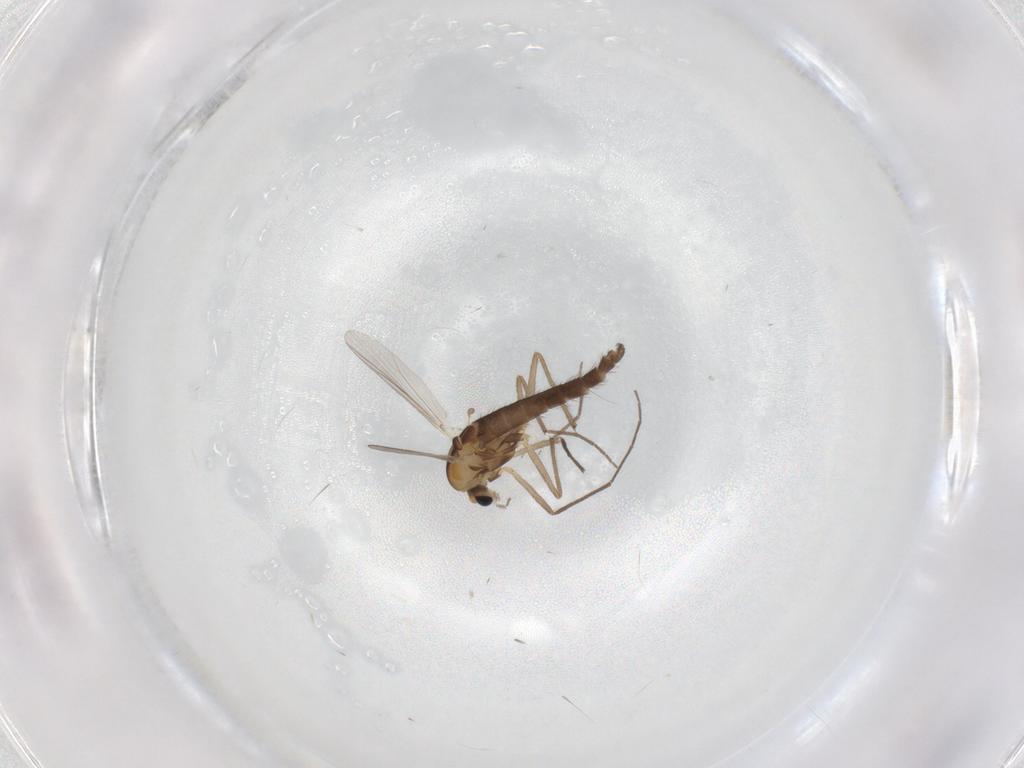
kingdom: Animalia
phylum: Arthropoda
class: Insecta
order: Diptera
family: Chironomidae
